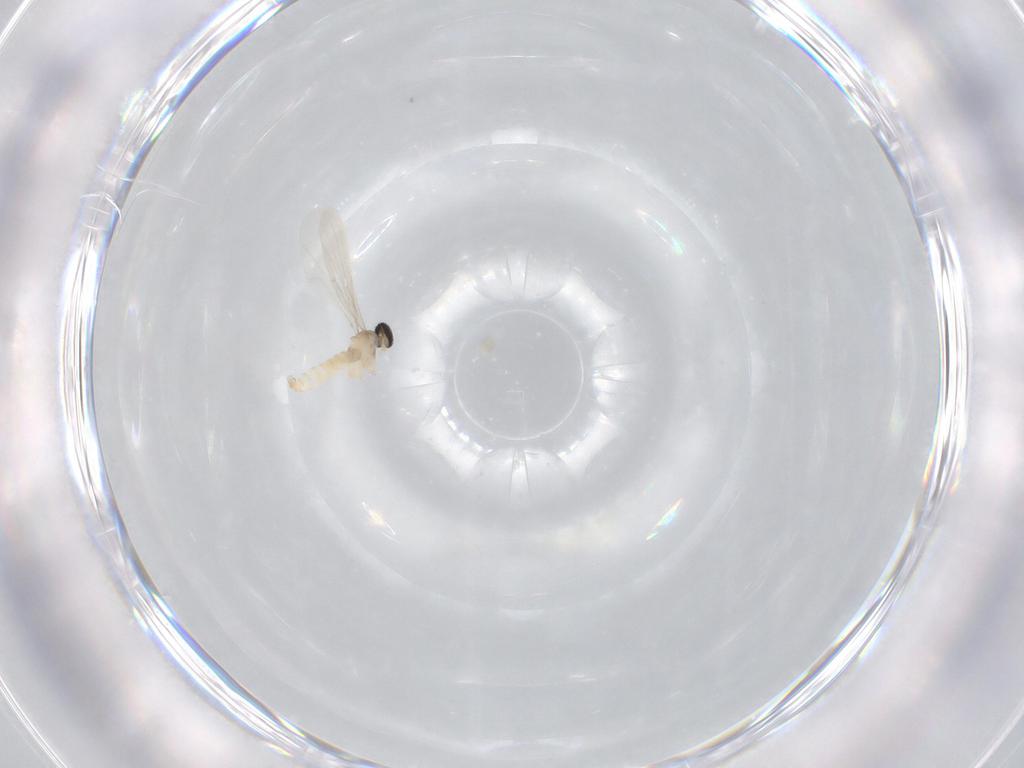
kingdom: Animalia
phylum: Arthropoda
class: Insecta
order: Diptera
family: Cecidomyiidae
